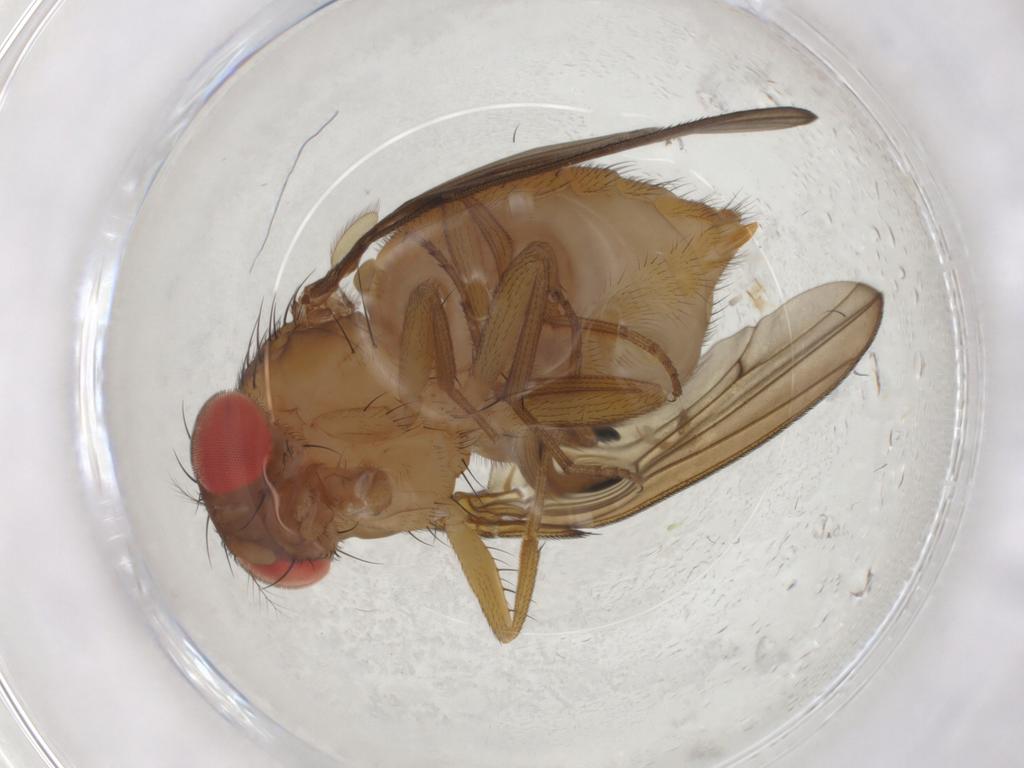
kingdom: Animalia
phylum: Arthropoda
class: Insecta
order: Diptera
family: Drosophilidae
